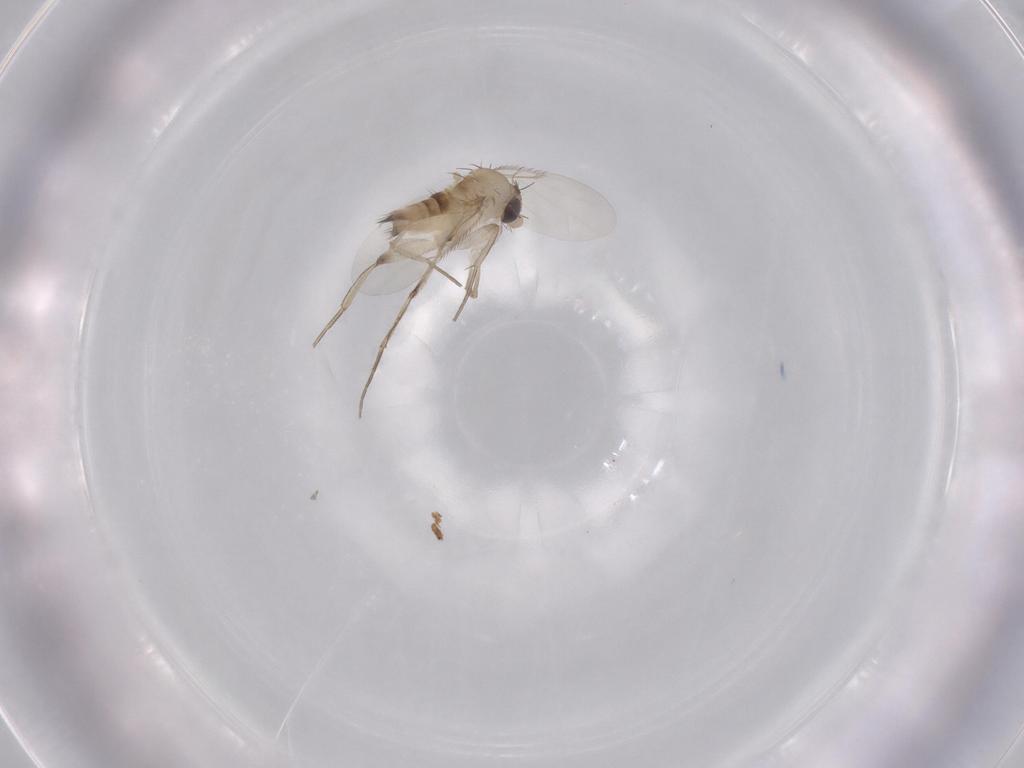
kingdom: Animalia
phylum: Arthropoda
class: Insecta
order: Diptera
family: Phoridae
